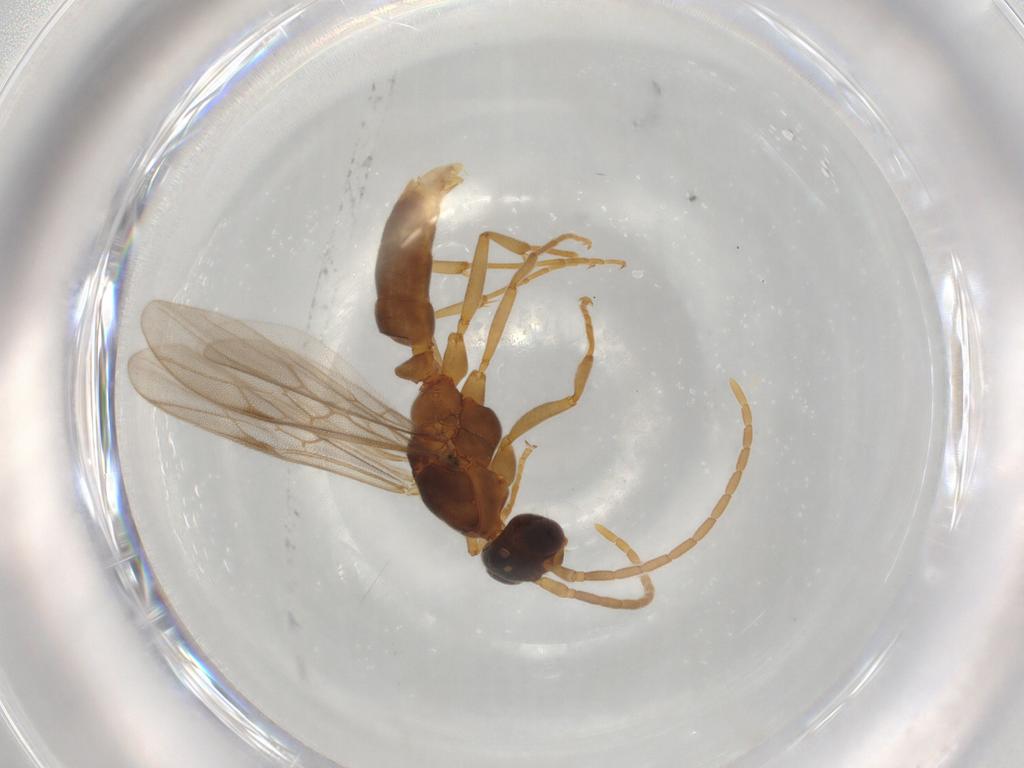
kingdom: Animalia
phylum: Arthropoda
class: Insecta
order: Hymenoptera
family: Formicidae
